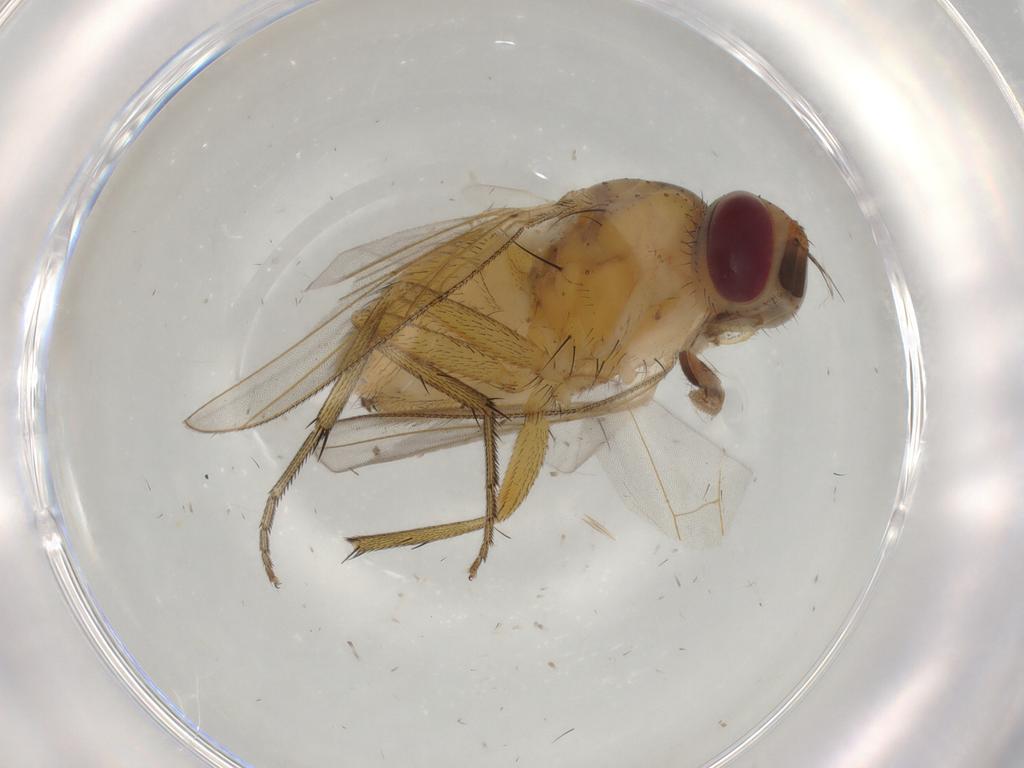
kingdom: Animalia
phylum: Arthropoda
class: Insecta
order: Diptera
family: Muscidae
